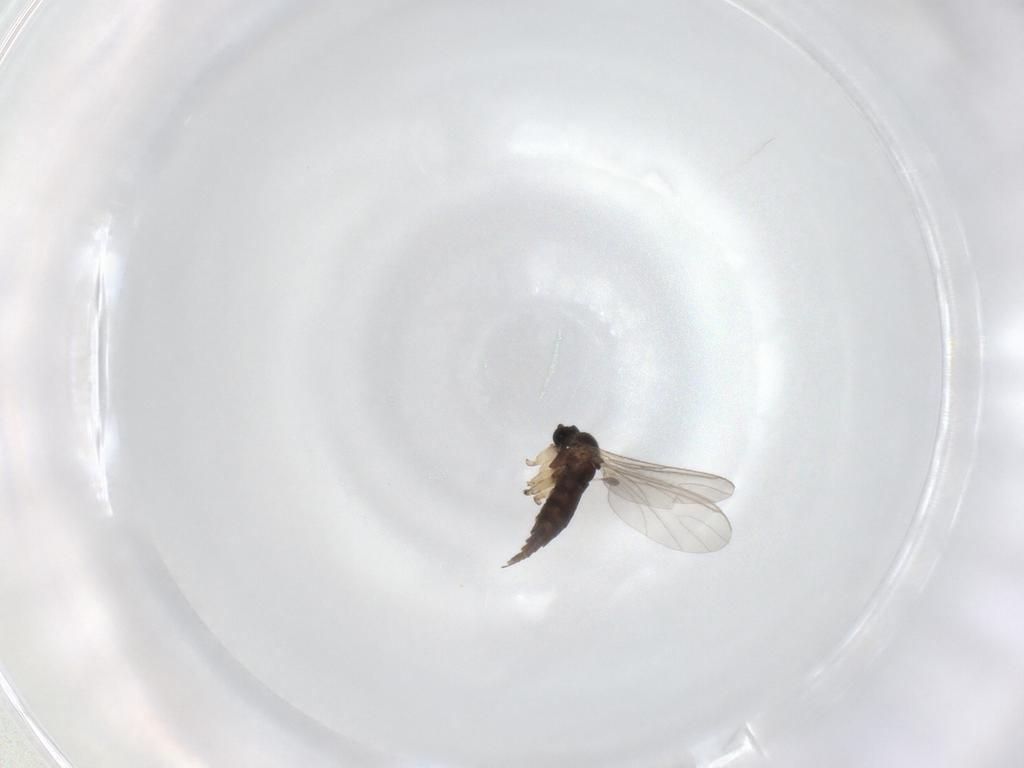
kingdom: Animalia
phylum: Arthropoda
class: Insecta
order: Diptera
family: Sciaridae
